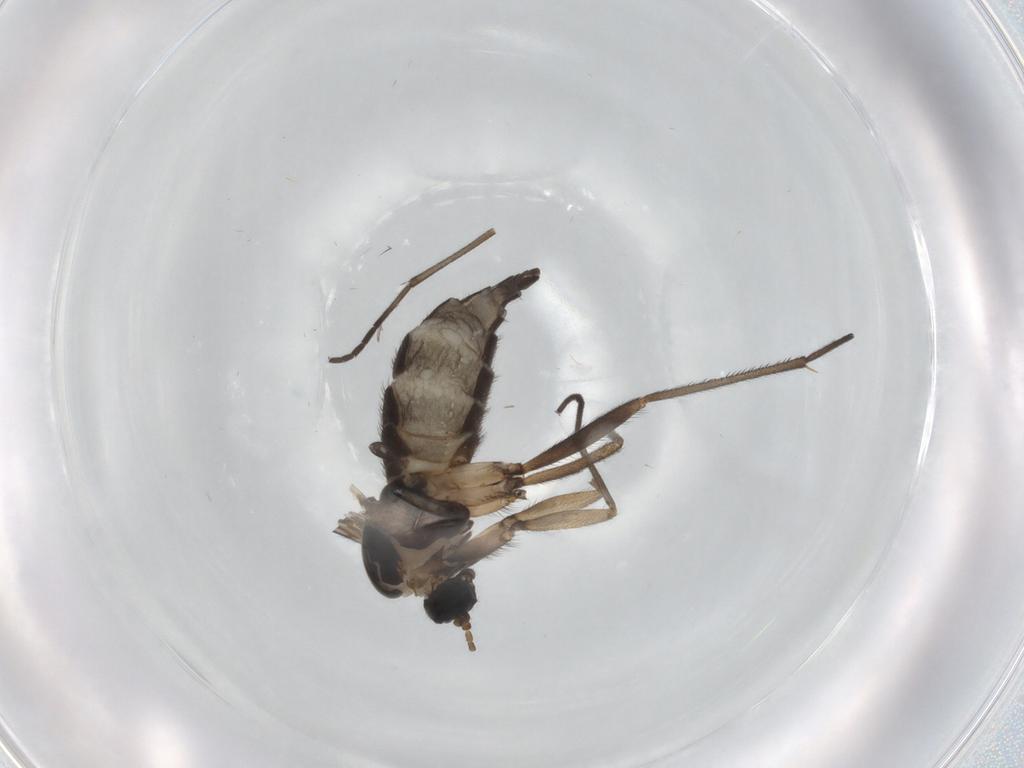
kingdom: Animalia
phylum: Arthropoda
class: Insecta
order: Diptera
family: Sciaridae
